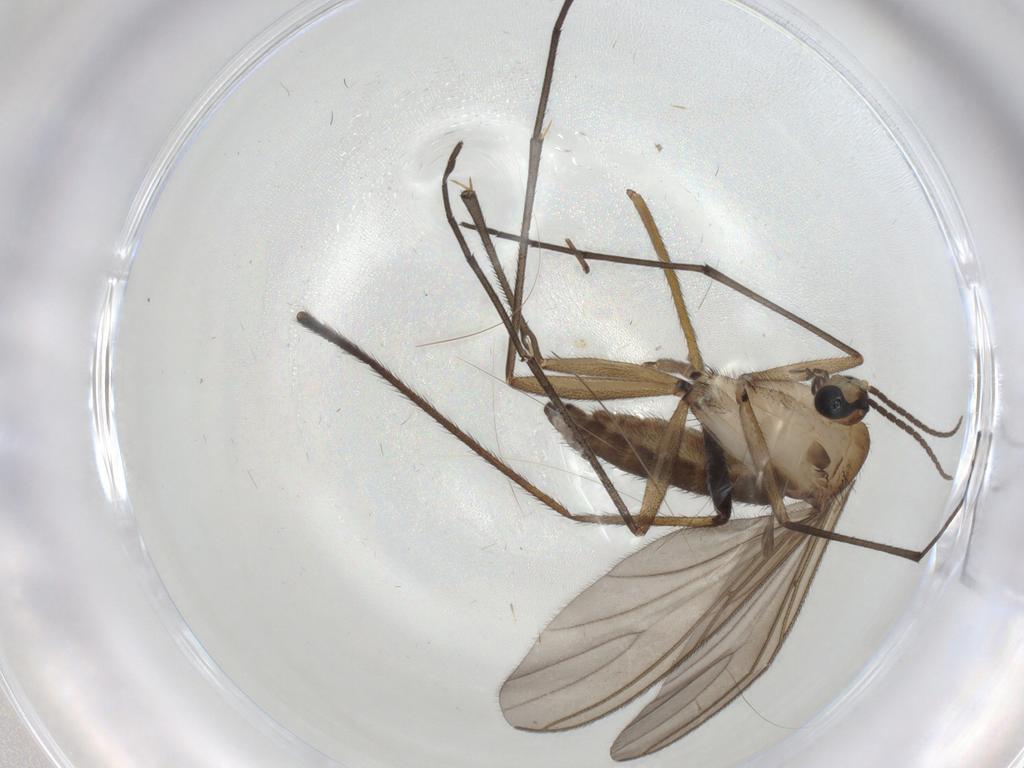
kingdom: Animalia
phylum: Arthropoda
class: Insecta
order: Diptera
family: Sciaridae
